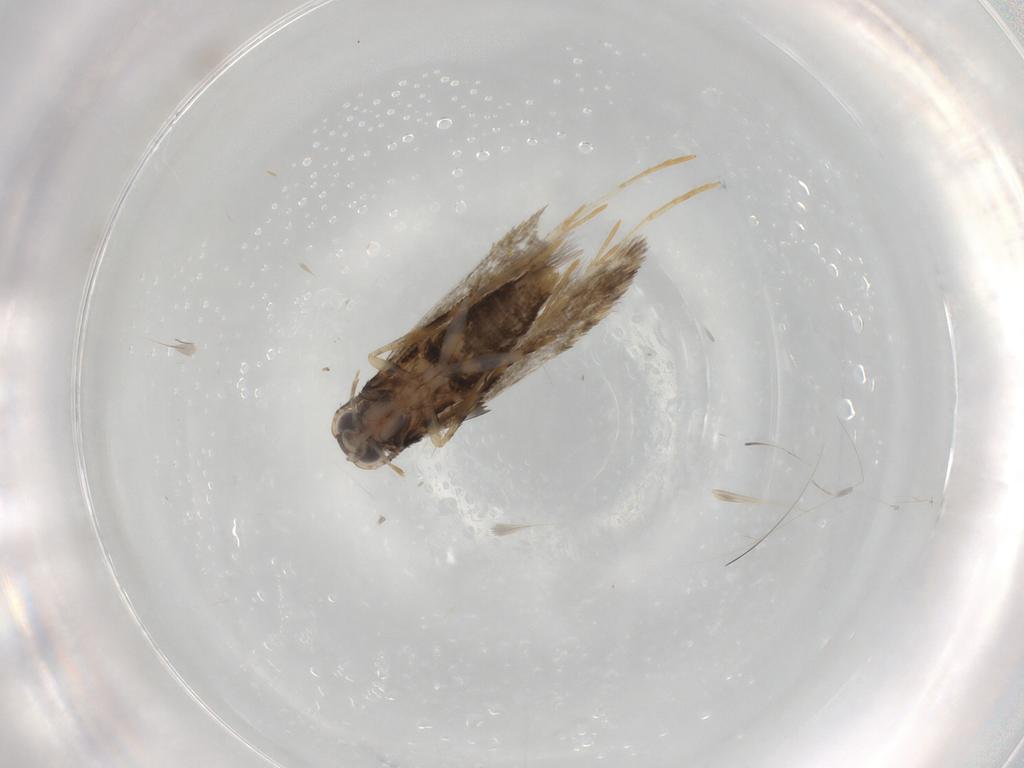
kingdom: Animalia
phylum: Arthropoda
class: Insecta
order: Lepidoptera
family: Tineidae
